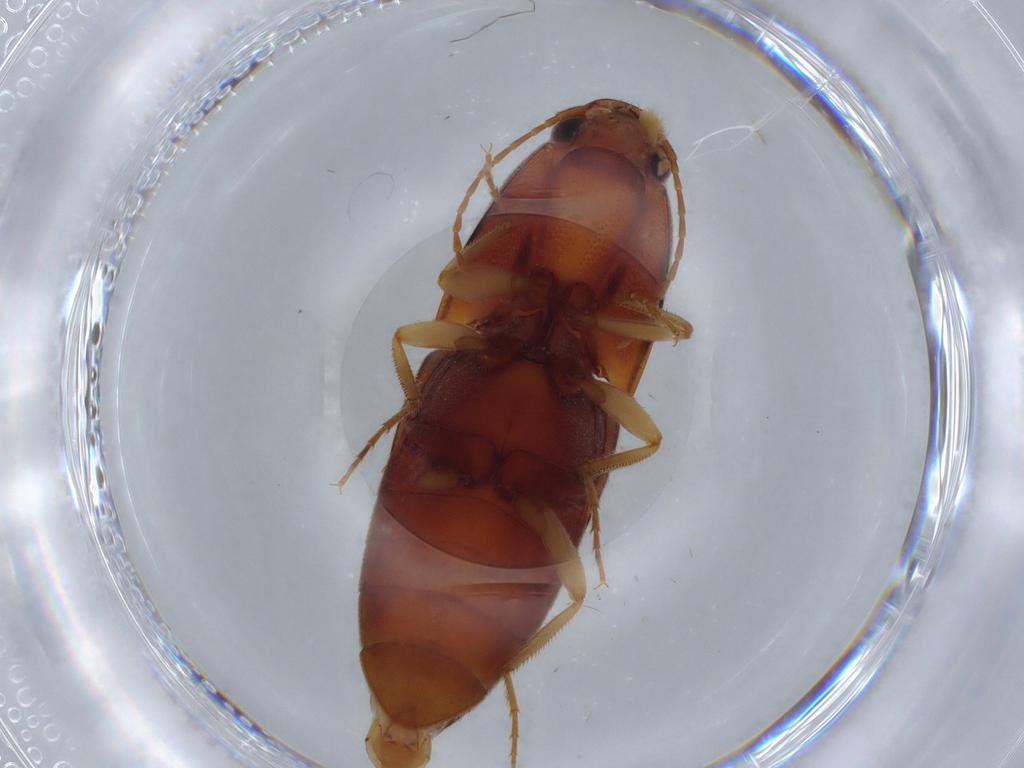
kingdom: Animalia
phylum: Arthropoda
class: Insecta
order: Coleoptera
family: Elateridae
